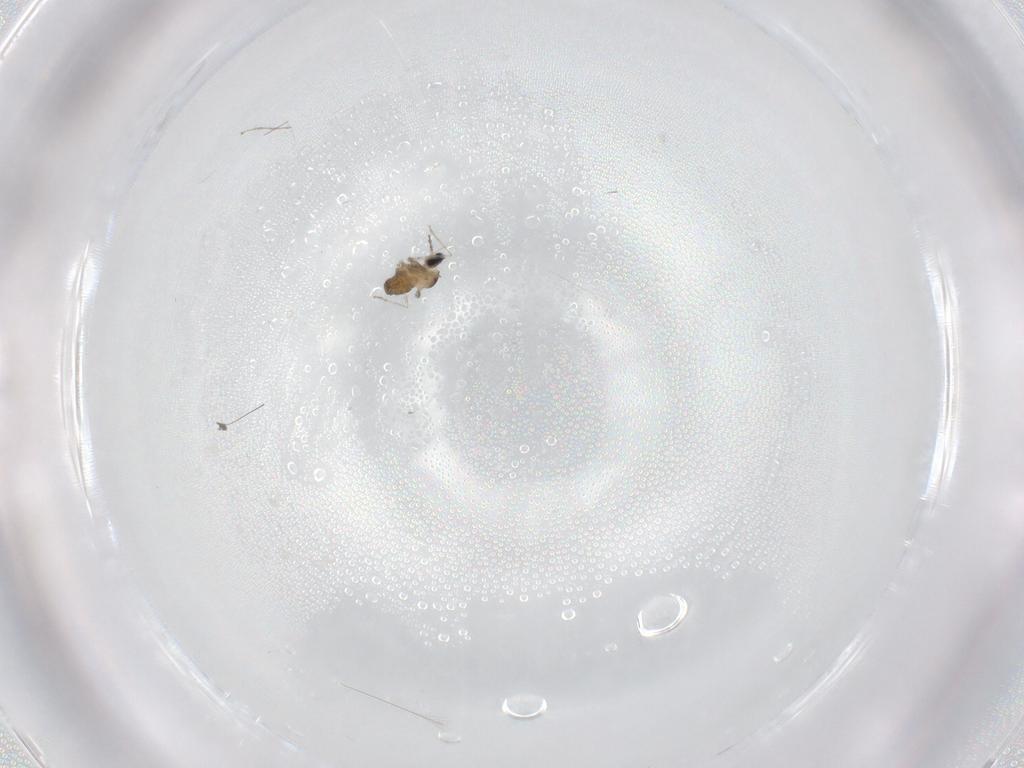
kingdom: Animalia
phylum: Arthropoda
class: Insecta
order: Diptera
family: Cecidomyiidae
